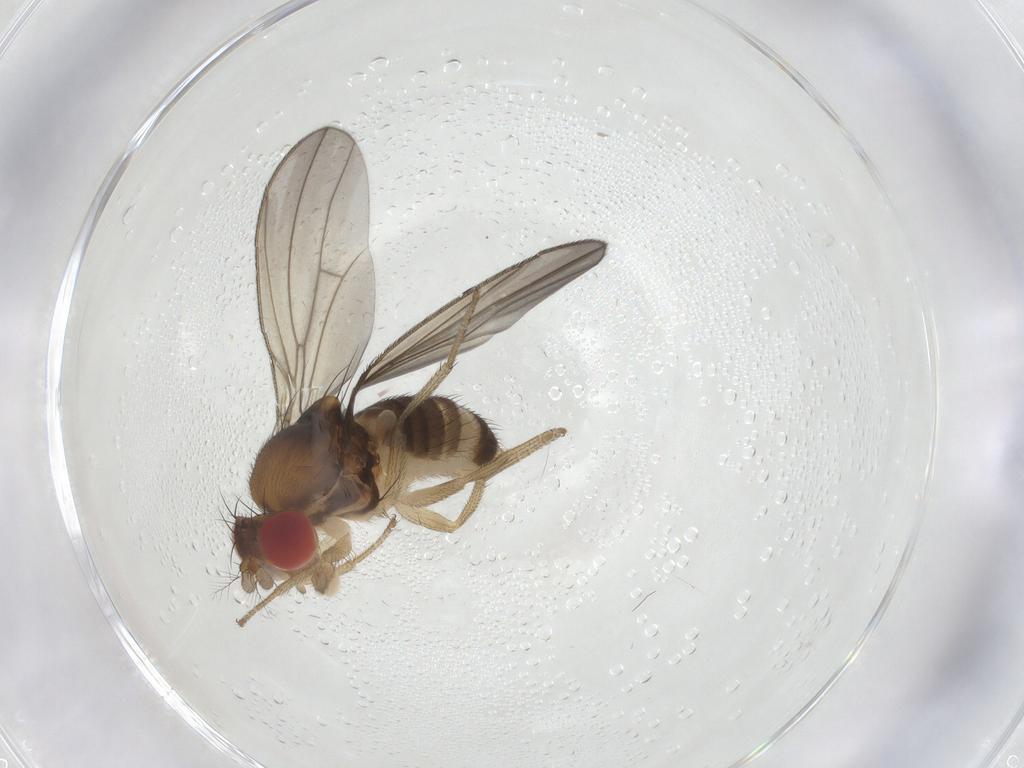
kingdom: Animalia
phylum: Arthropoda
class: Insecta
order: Diptera
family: Drosophilidae
